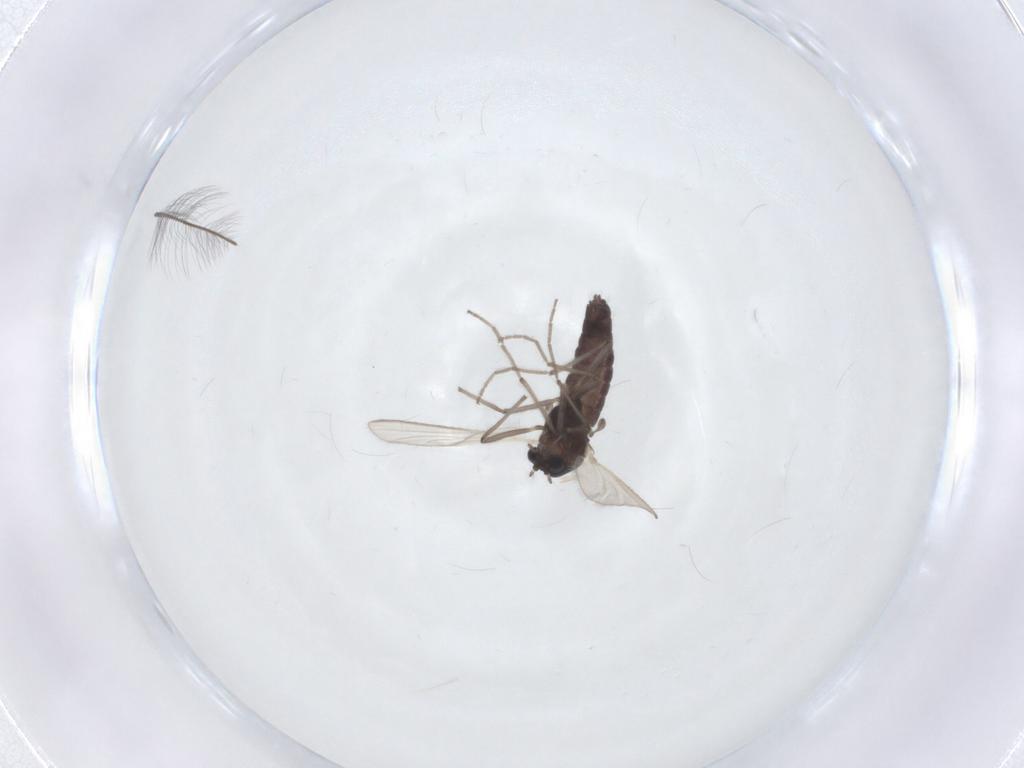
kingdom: Animalia
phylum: Arthropoda
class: Insecta
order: Diptera
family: Chironomidae
